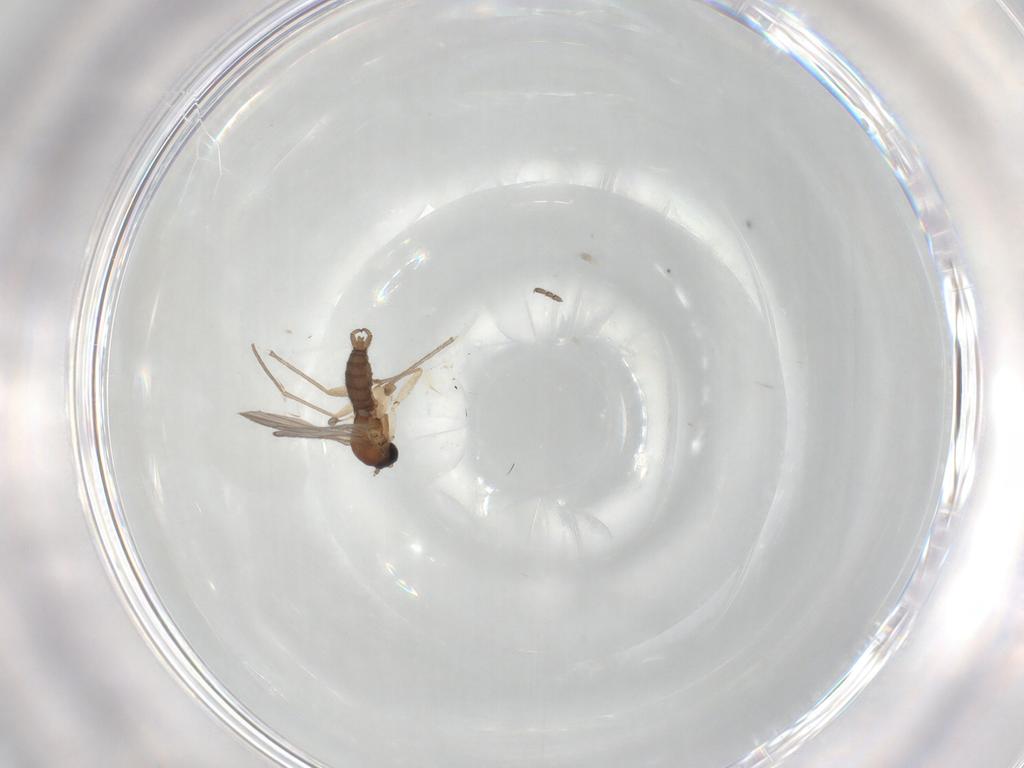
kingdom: Animalia
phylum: Arthropoda
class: Insecta
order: Diptera
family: Sciaridae
